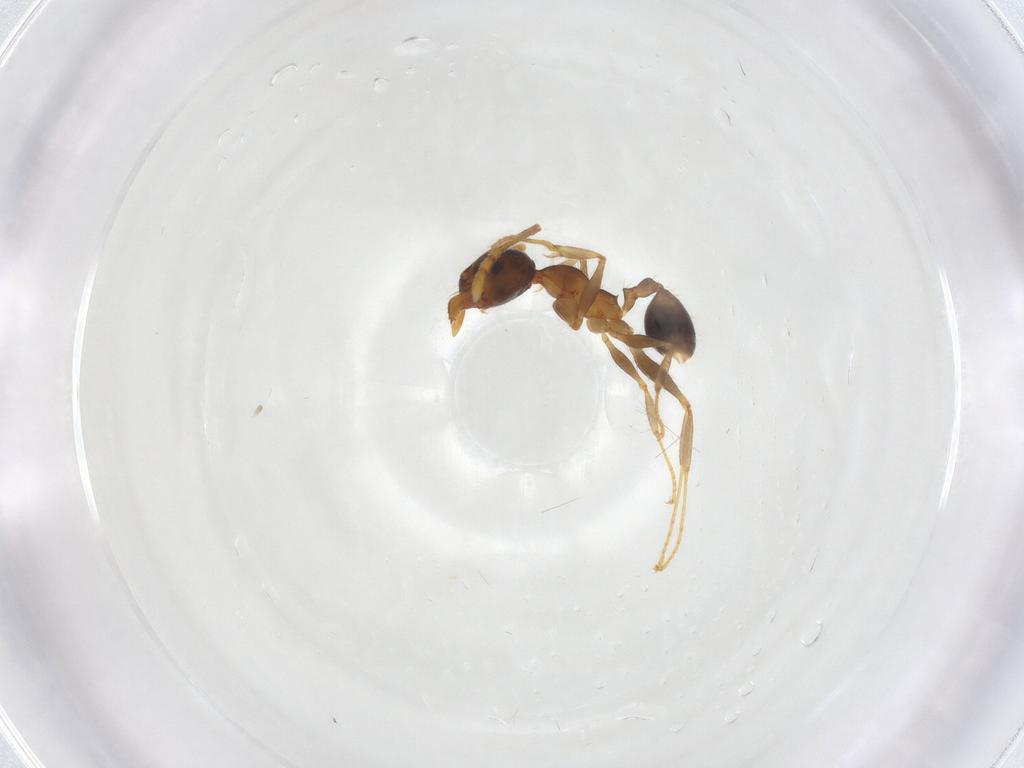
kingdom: Animalia
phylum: Arthropoda
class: Insecta
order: Hymenoptera
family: Formicidae
